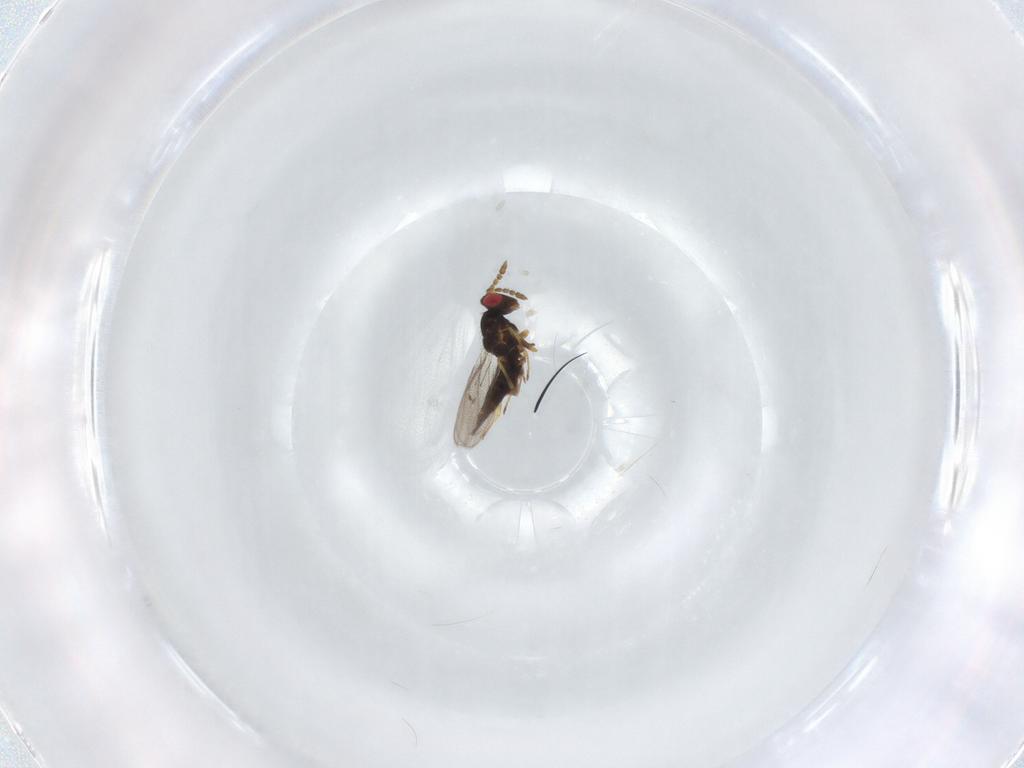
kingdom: Animalia
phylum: Arthropoda
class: Insecta
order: Hymenoptera
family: Eulophidae
